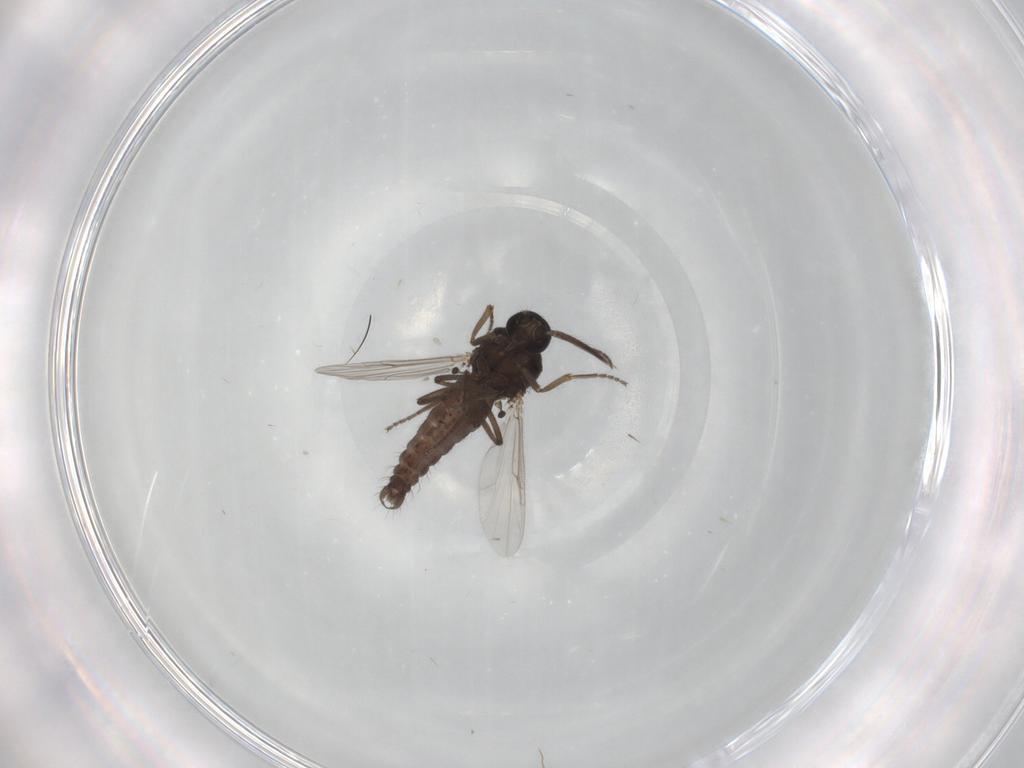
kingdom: Animalia
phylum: Arthropoda
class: Insecta
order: Diptera
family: Ceratopogonidae
